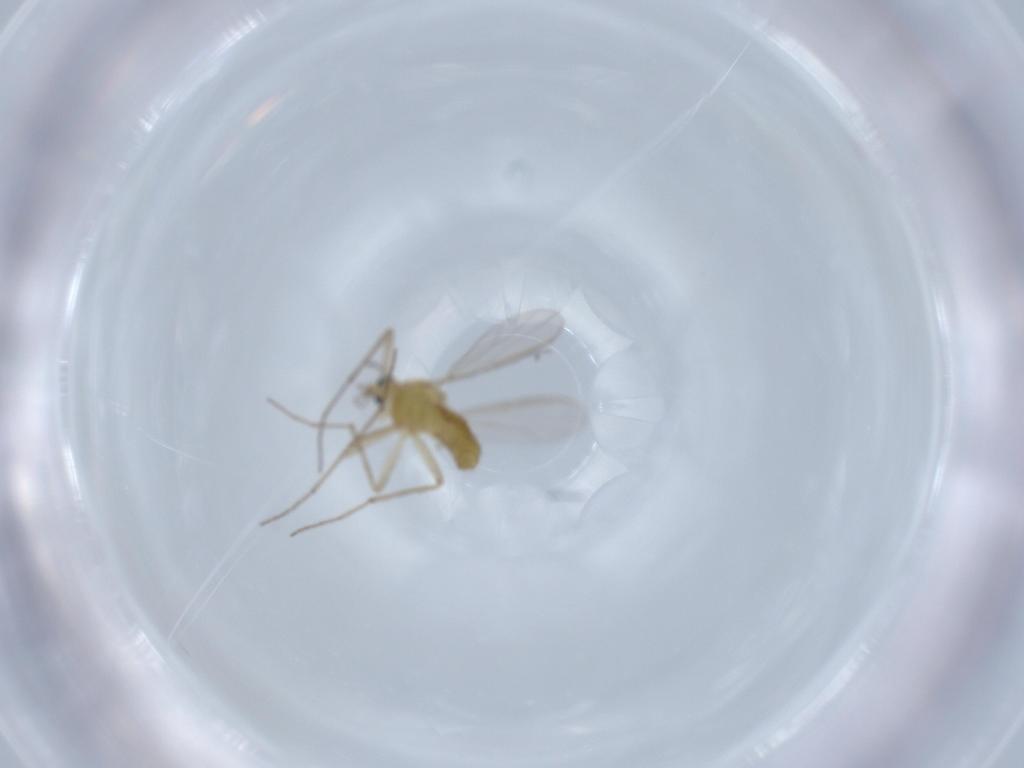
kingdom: Animalia
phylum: Arthropoda
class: Insecta
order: Diptera
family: Chironomidae
